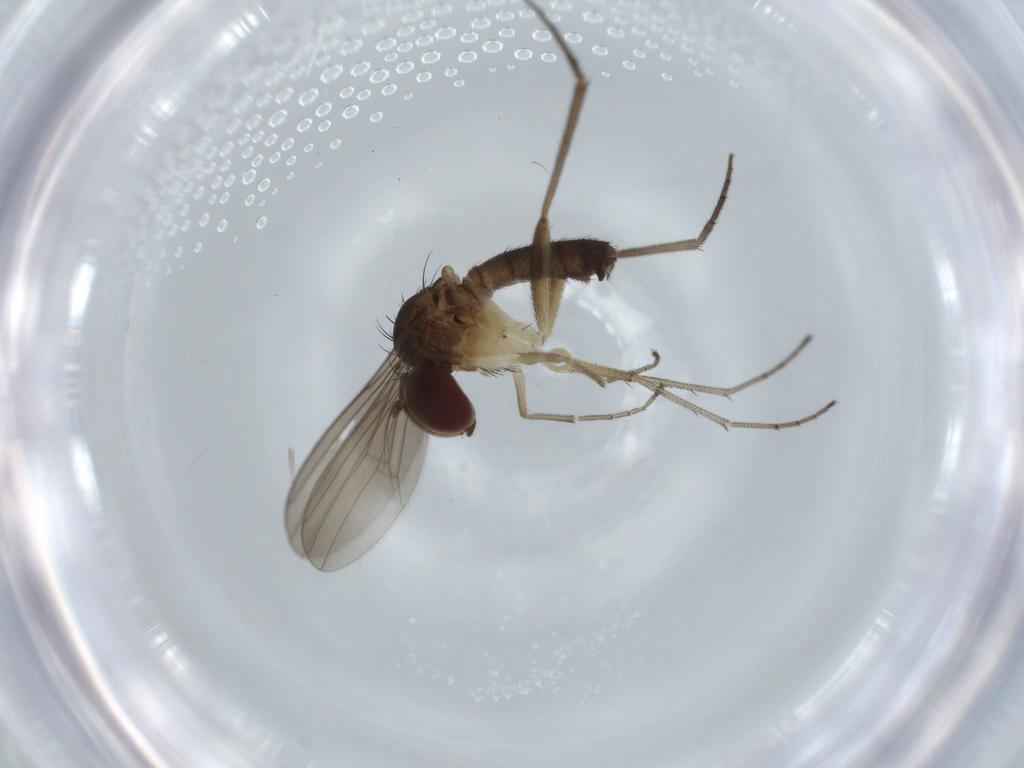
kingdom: Animalia
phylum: Arthropoda
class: Insecta
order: Diptera
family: Dolichopodidae
